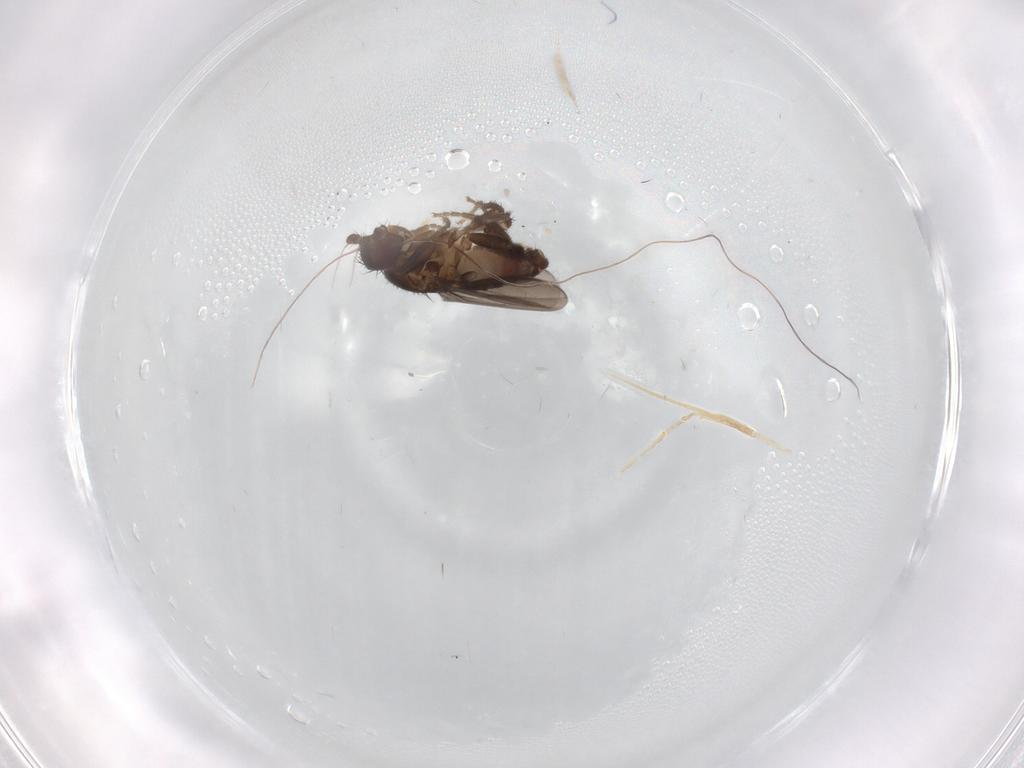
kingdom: Animalia
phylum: Arthropoda
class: Insecta
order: Diptera
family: Sphaeroceridae
